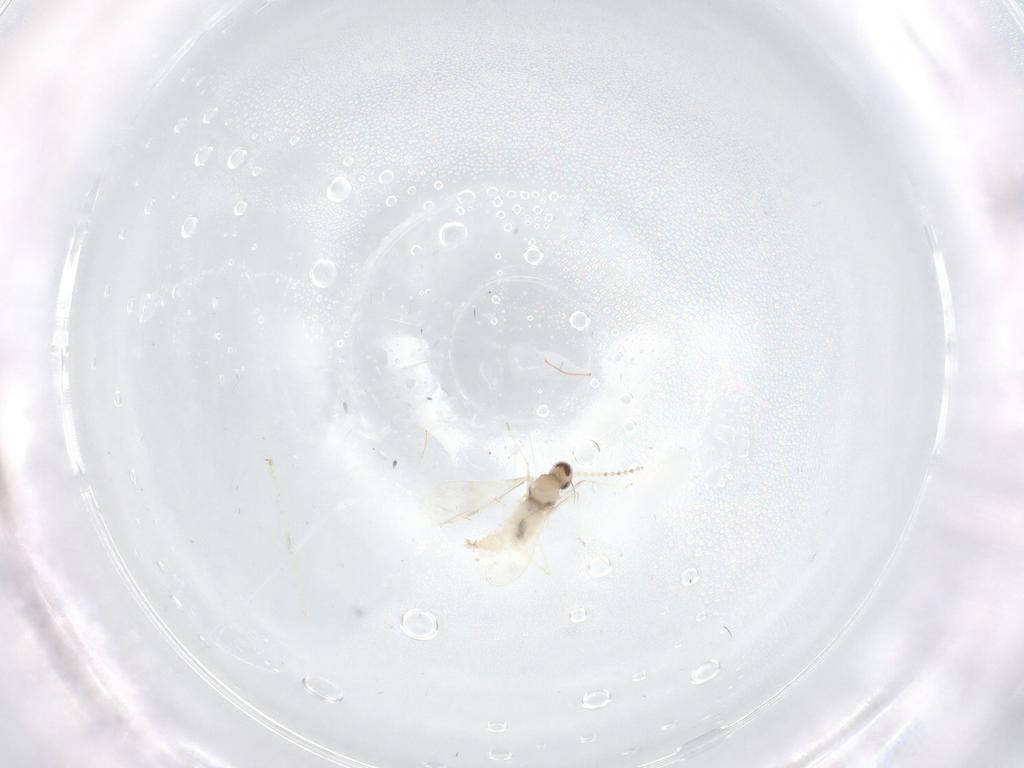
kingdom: Animalia
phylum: Arthropoda
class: Insecta
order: Diptera
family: Cecidomyiidae
